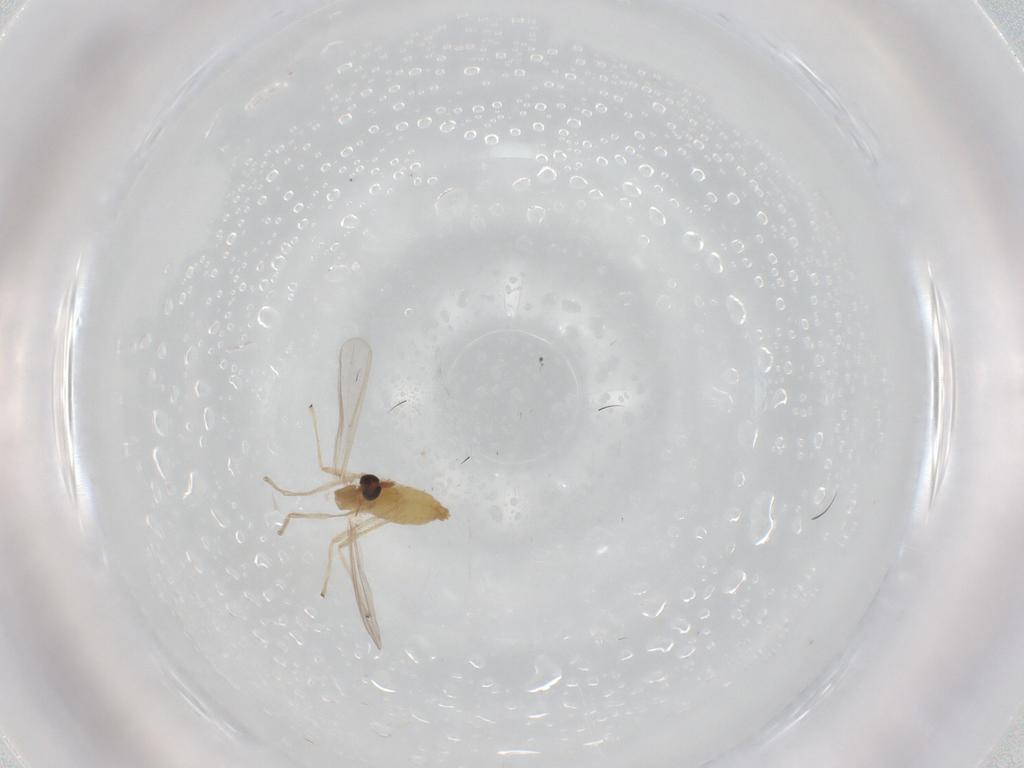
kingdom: Animalia
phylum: Arthropoda
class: Insecta
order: Diptera
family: Chironomidae
